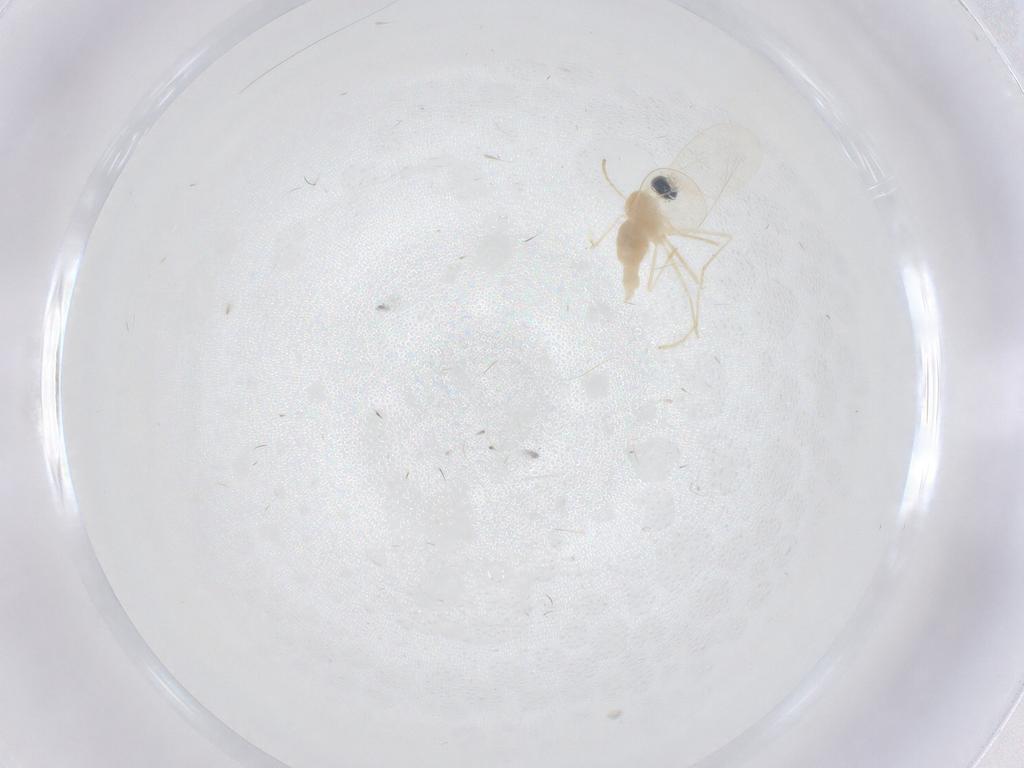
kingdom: Animalia
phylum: Arthropoda
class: Insecta
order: Diptera
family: Cecidomyiidae
